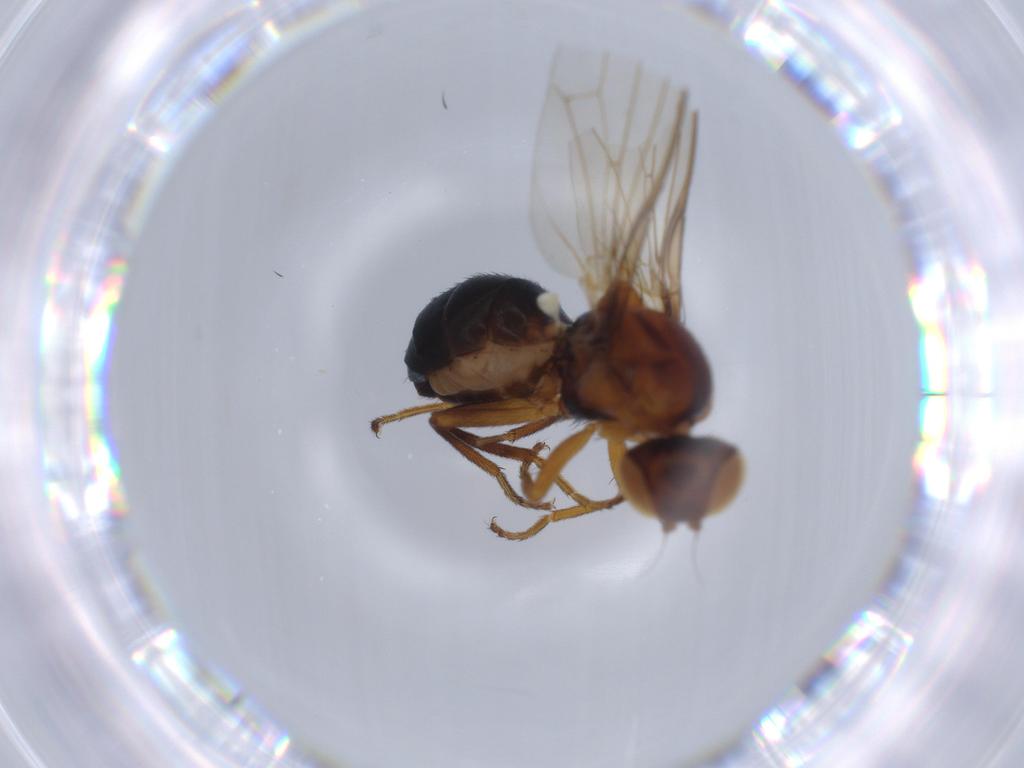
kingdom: Animalia
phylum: Arthropoda
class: Insecta
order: Diptera
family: Piophilidae
